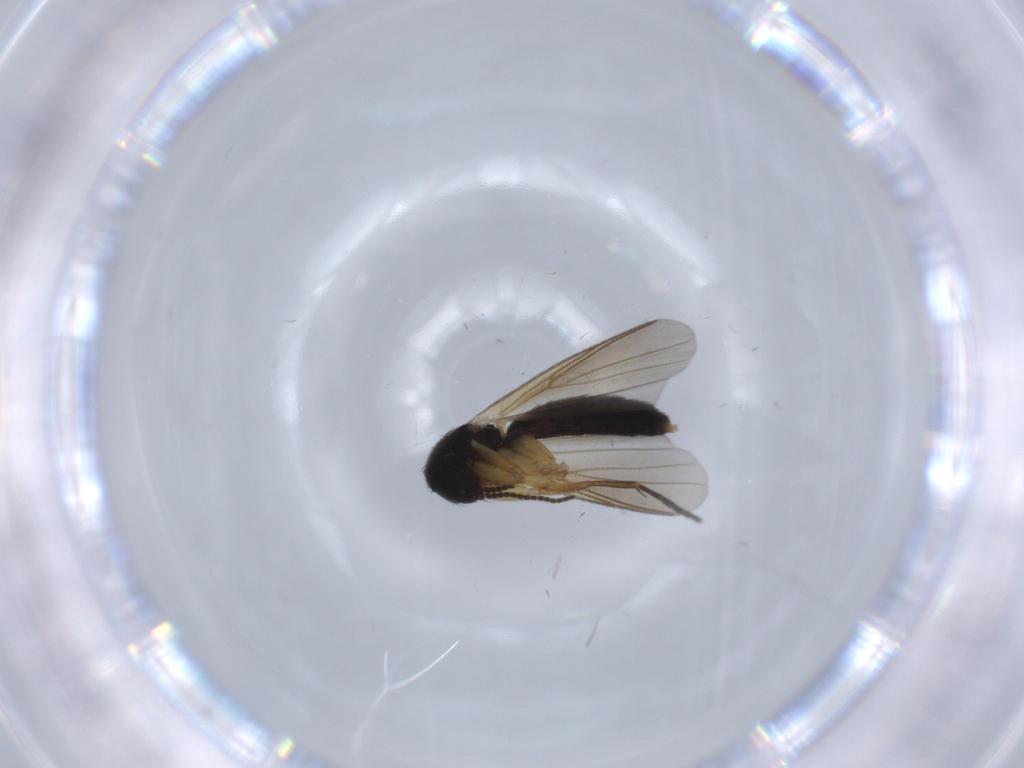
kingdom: Animalia
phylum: Arthropoda
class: Insecta
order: Diptera
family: Mycetophilidae
